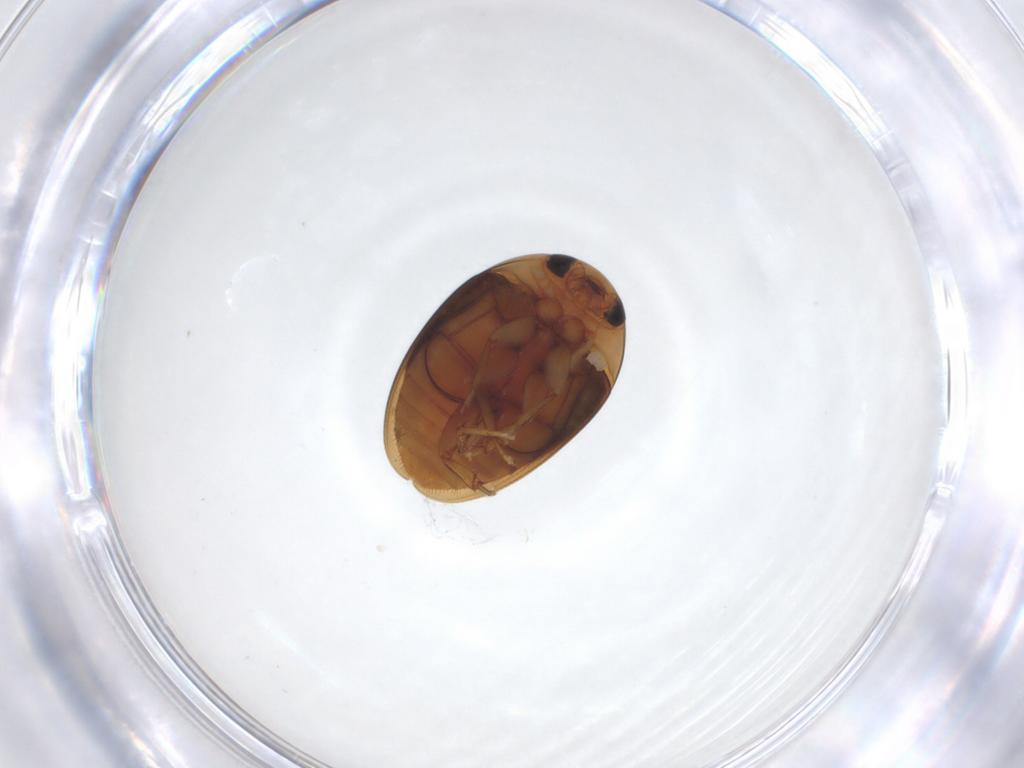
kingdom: Animalia
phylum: Arthropoda
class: Insecta
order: Coleoptera
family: Phalacridae
